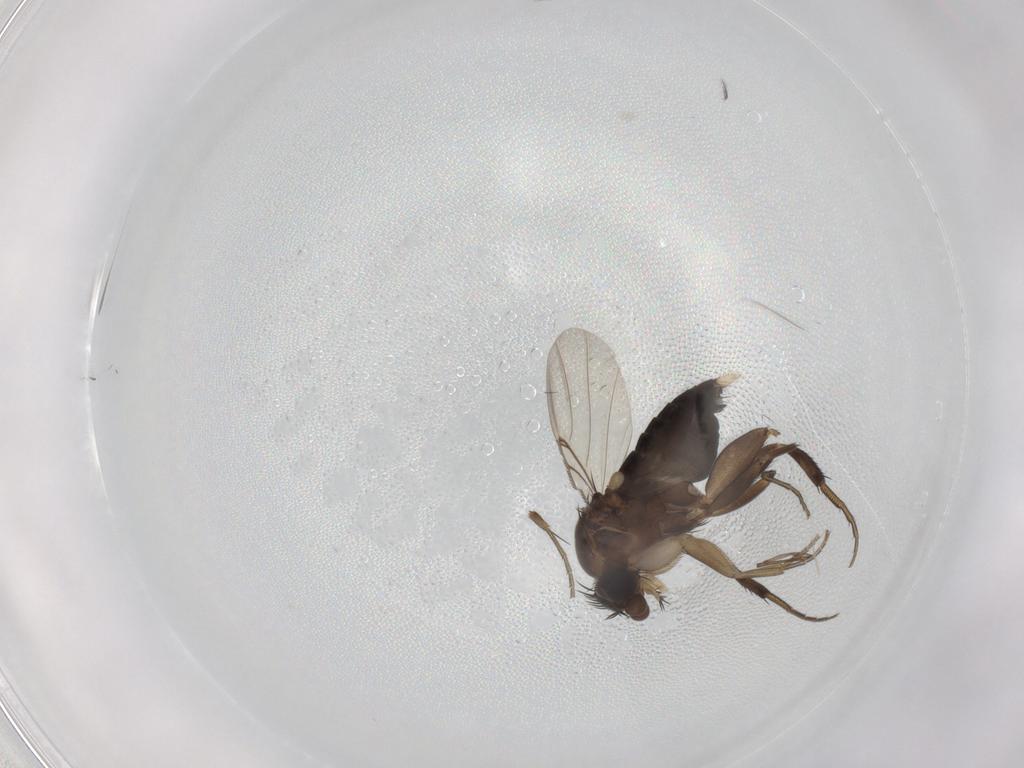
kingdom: Animalia
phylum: Arthropoda
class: Insecta
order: Diptera
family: Phoridae
